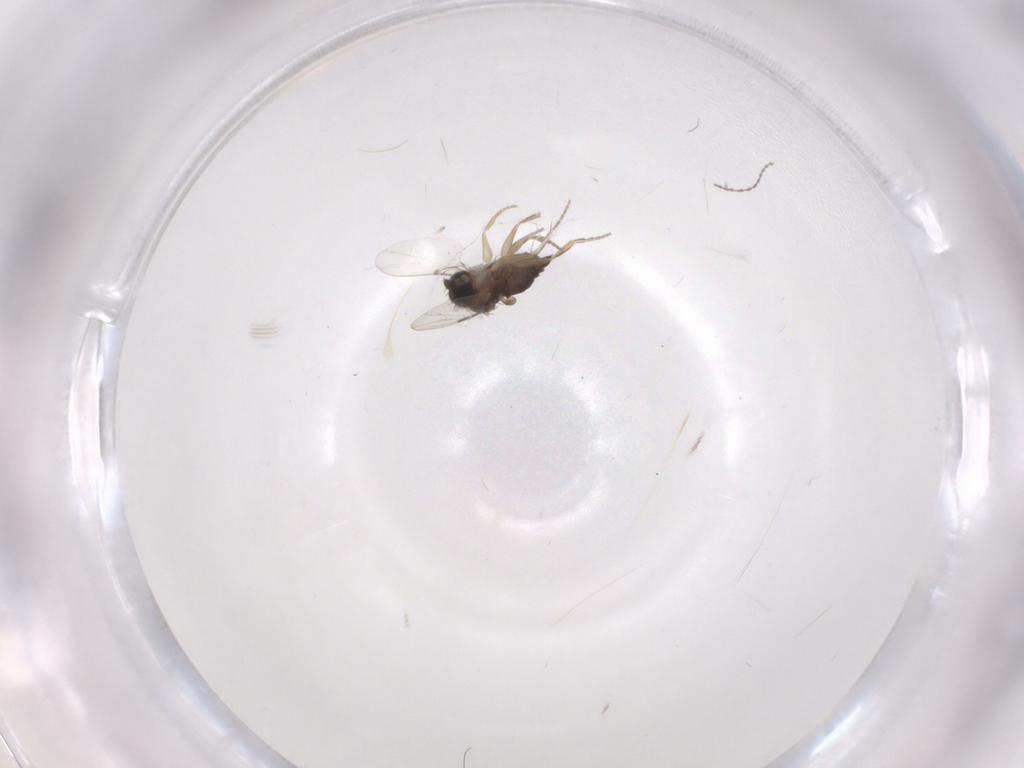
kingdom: Animalia
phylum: Arthropoda
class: Insecta
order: Diptera
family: Phoridae
